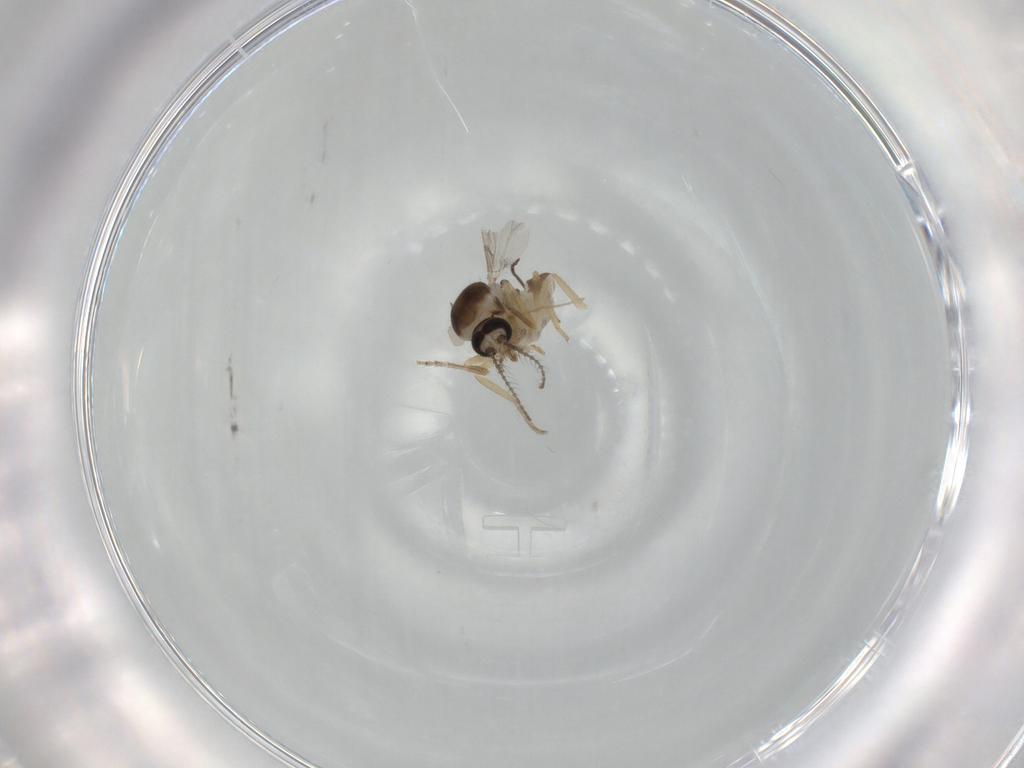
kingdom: Animalia
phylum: Arthropoda
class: Insecta
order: Diptera
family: Ceratopogonidae
